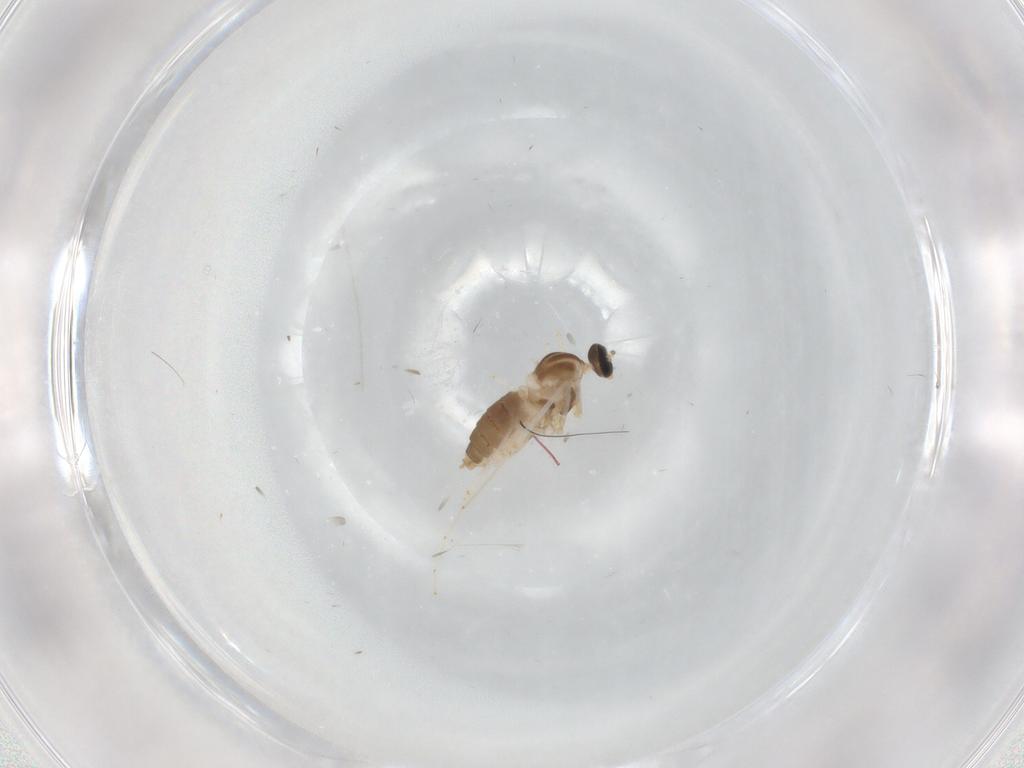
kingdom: Animalia
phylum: Arthropoda
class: Insecta
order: Diptera
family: Cecidomyiidae
